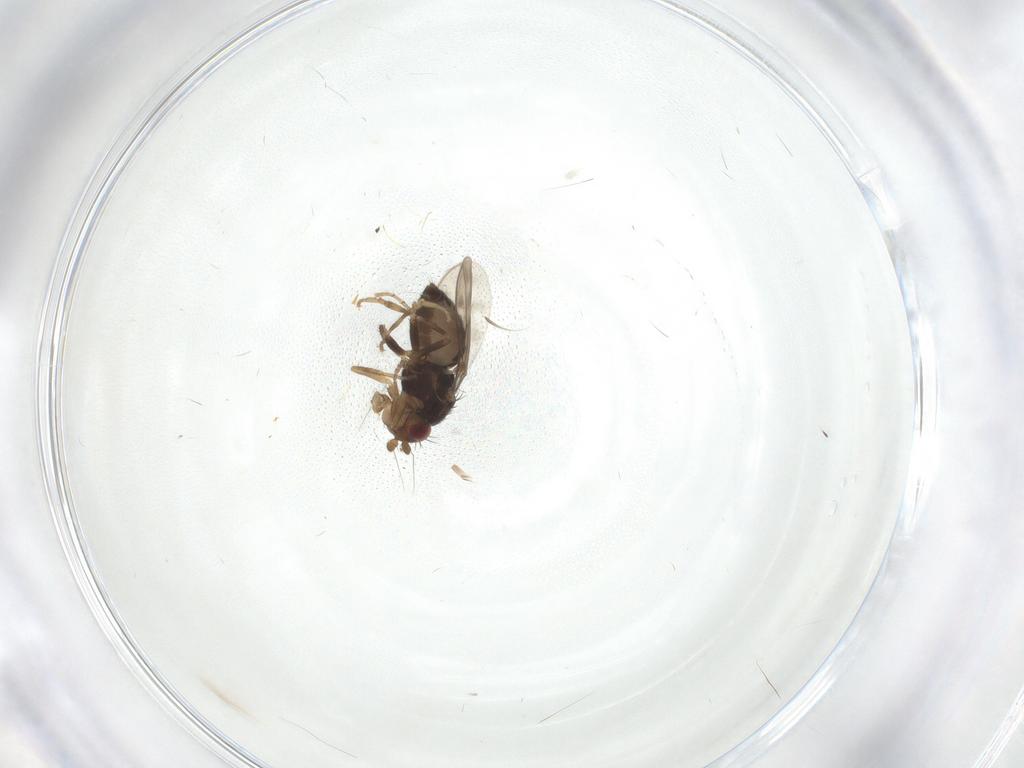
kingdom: Animalia
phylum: Arthropoda
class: Insecta
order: Diptera
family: Sphaeroceridae
